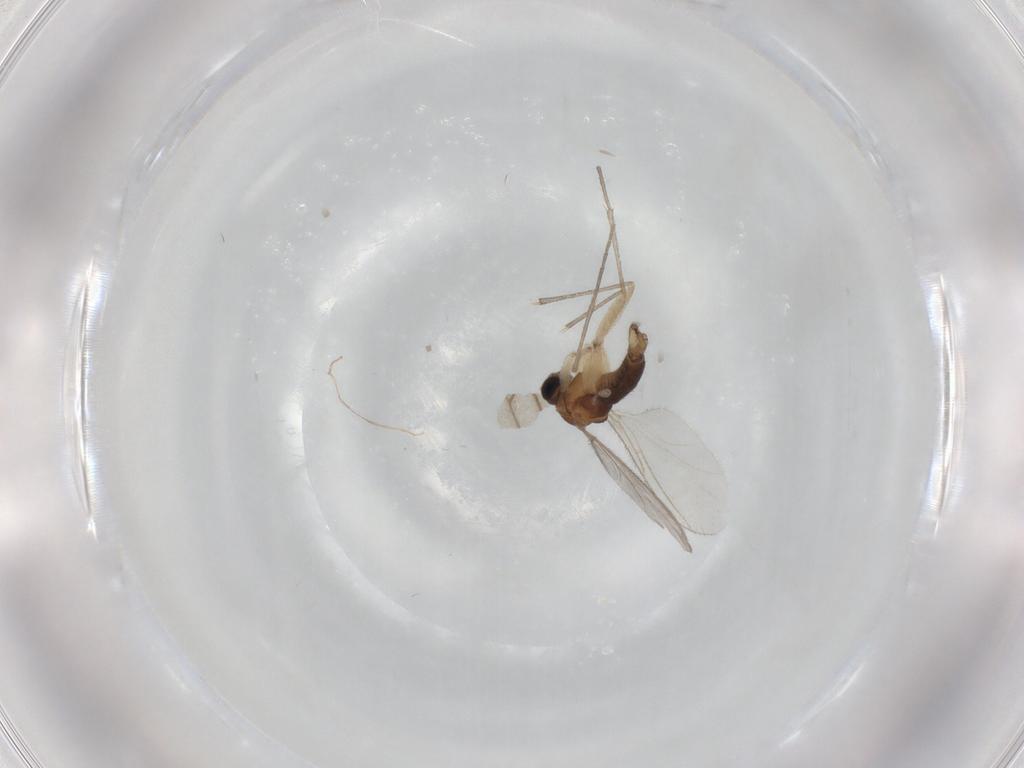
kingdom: Animalia
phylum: Arthropoda
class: Insecta
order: Diptera
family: Sciaridae
